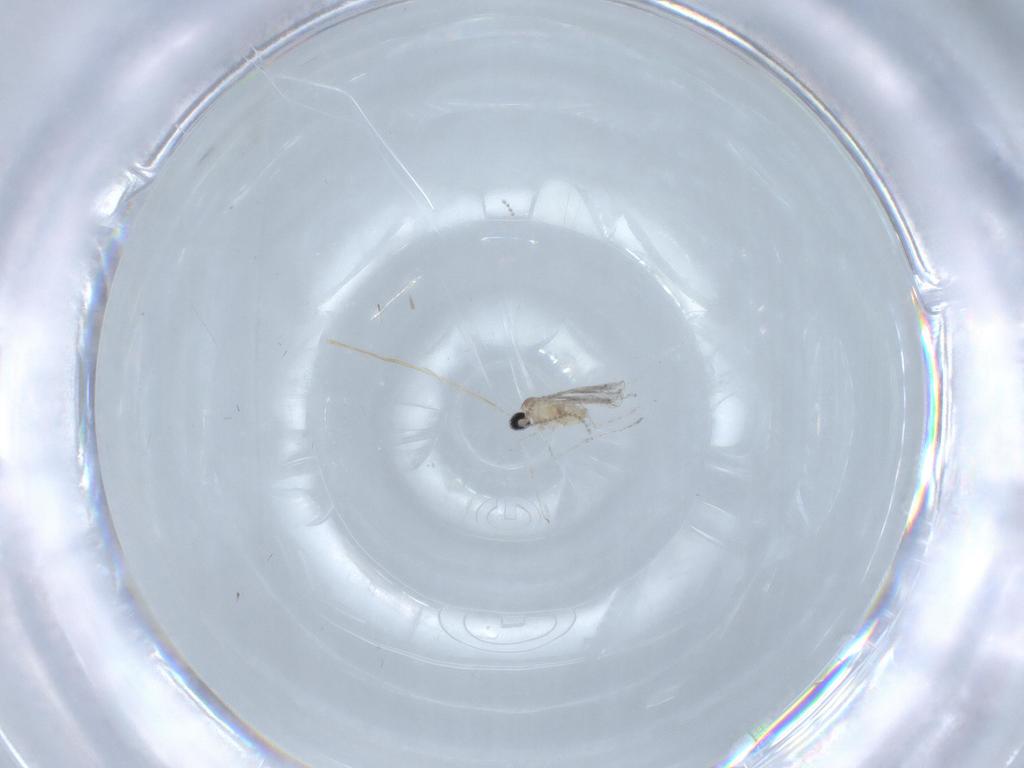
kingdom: Animalia
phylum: Arthropoda
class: Insecta
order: Diptera
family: Cecidomyiidae
